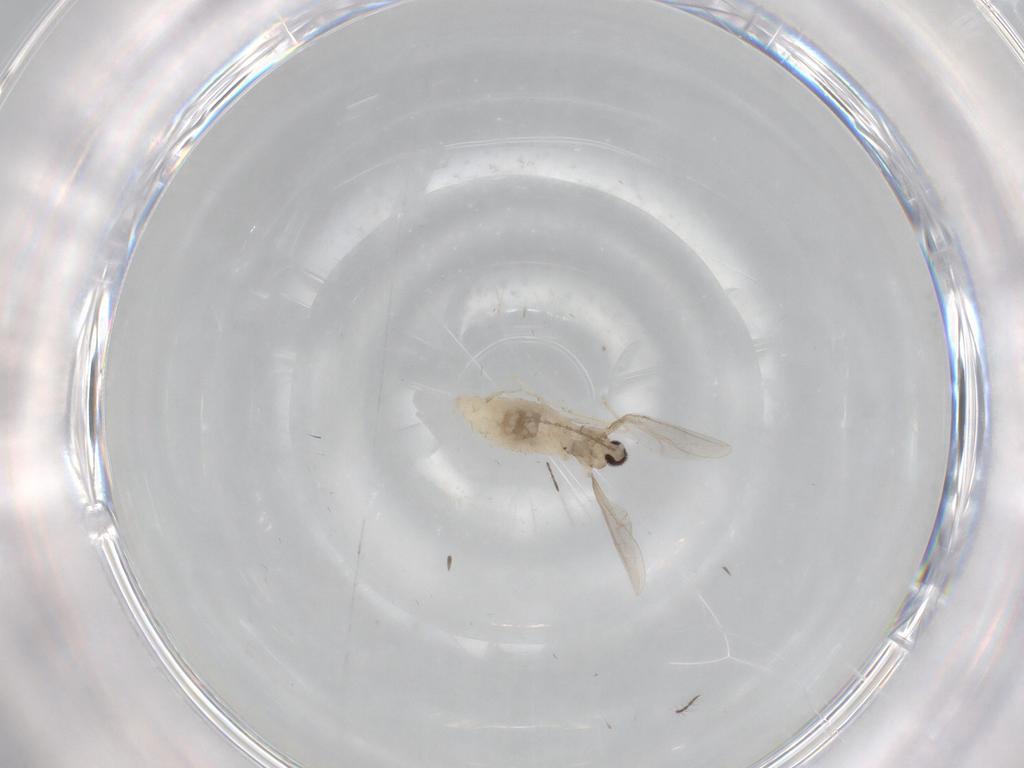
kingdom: Animalia
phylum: Arthropoda
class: Insecta
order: Diptera
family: Cecidomyiidae
